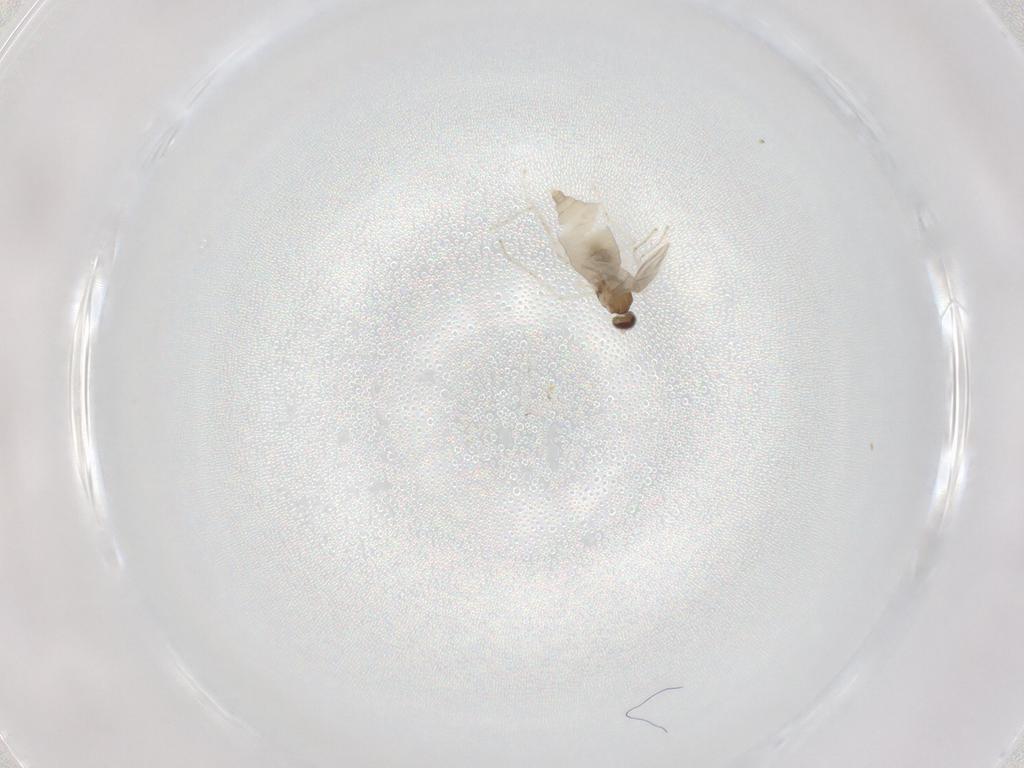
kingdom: Animalia
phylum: Arthropoda
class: Insecta
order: Diptera
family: Cecidomyiidae
